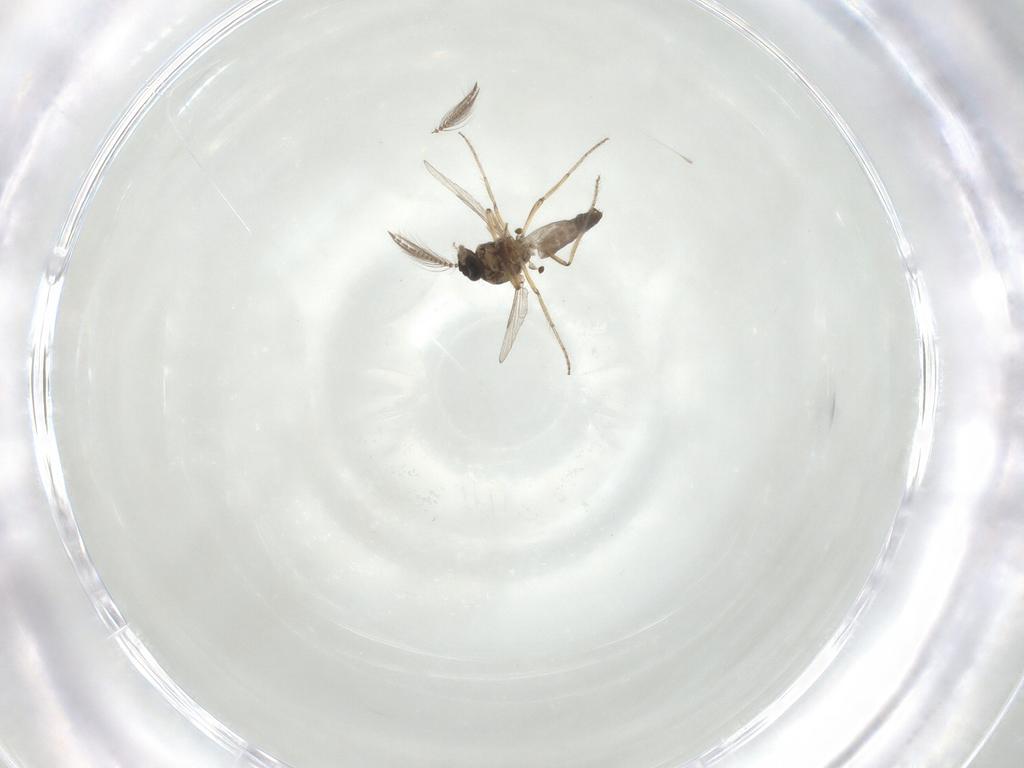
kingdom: Animalia
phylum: Arthropoda
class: Insecta
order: Diptera
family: Ceratopogonidae
